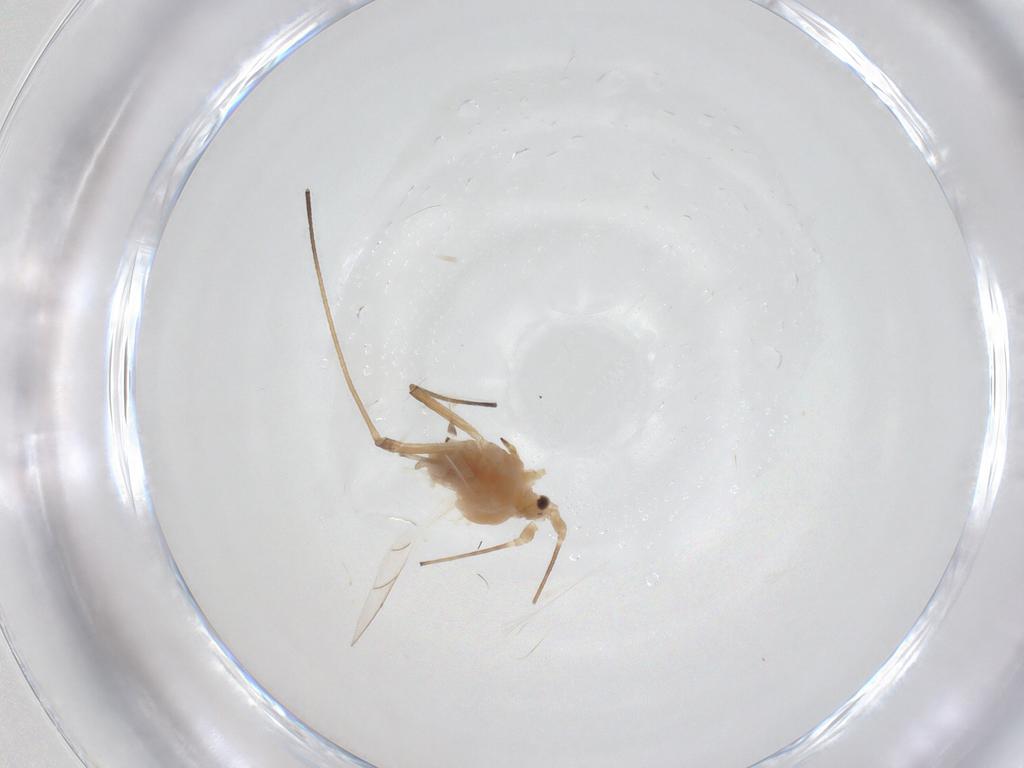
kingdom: Animalia
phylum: Arthropoda
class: Insecta
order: Hemiptera
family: Aphididae
